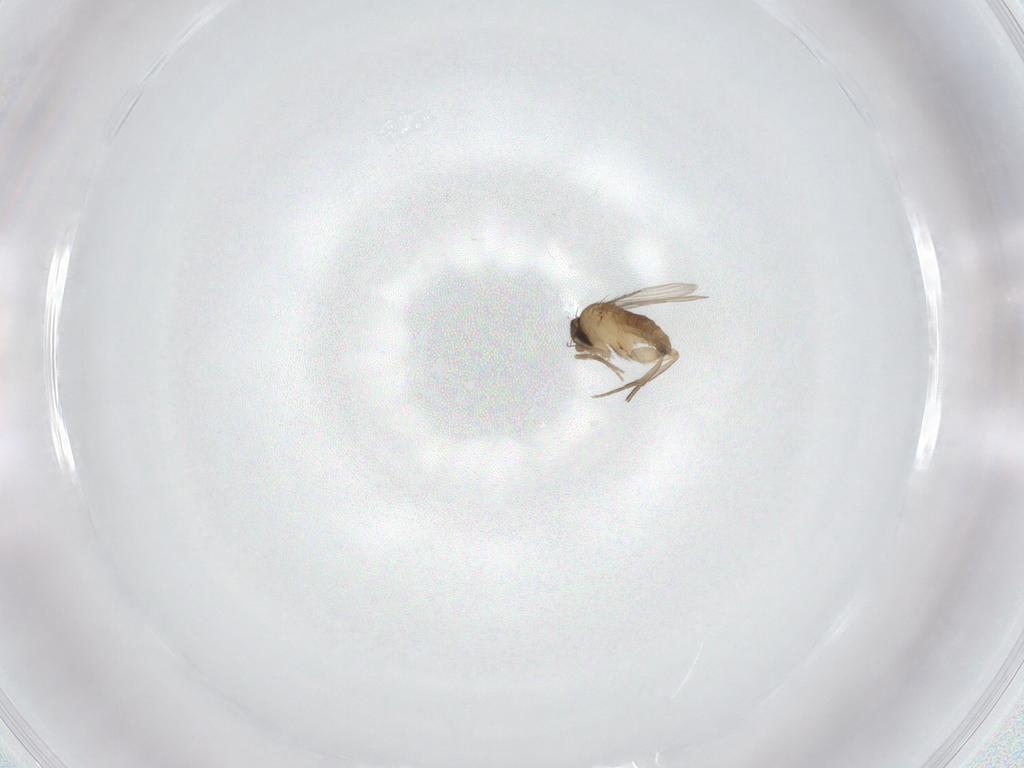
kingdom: Animalia
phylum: Arthropoda
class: Insecta
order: Diptera
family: Phoridae
